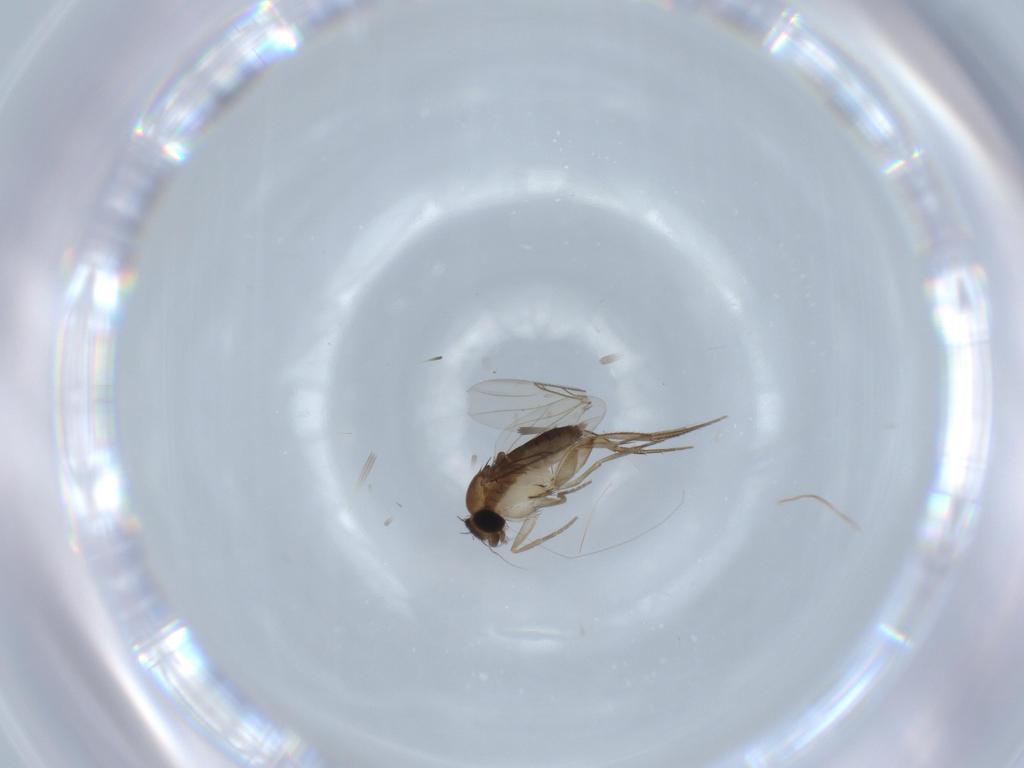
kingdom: Animalia
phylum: Arthropoda
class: Insecta
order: Diptera
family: Phoridae
